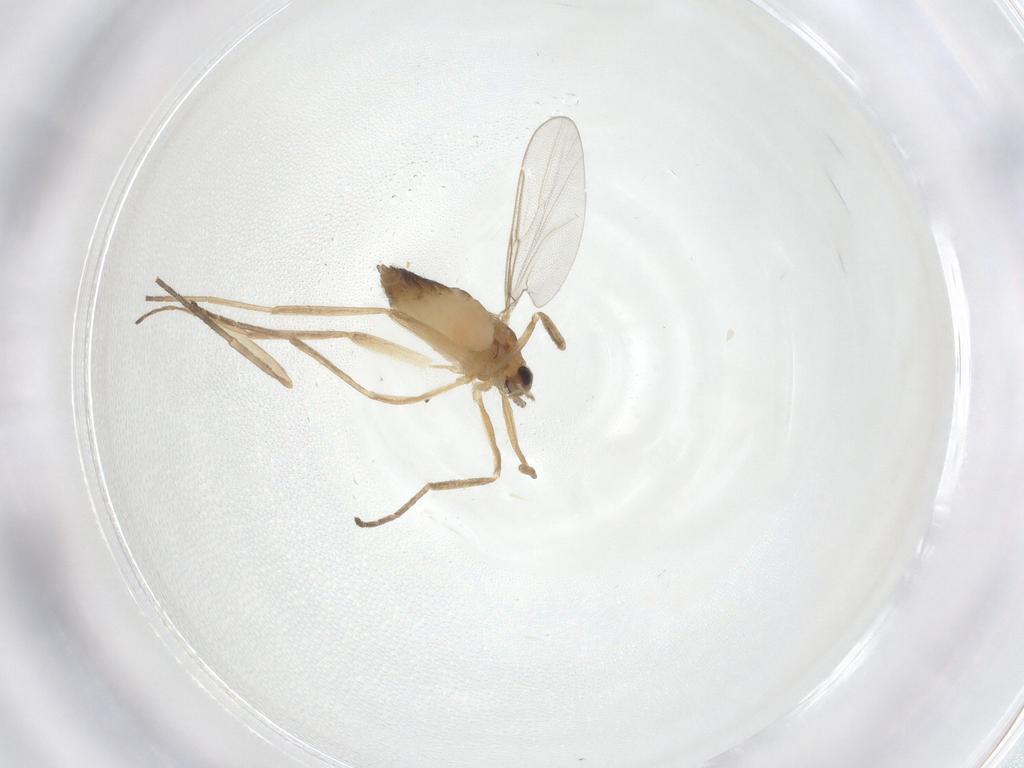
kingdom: Animalia
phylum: Arthropoda
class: Insecta
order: Diptera
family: Cecidomyiidae
